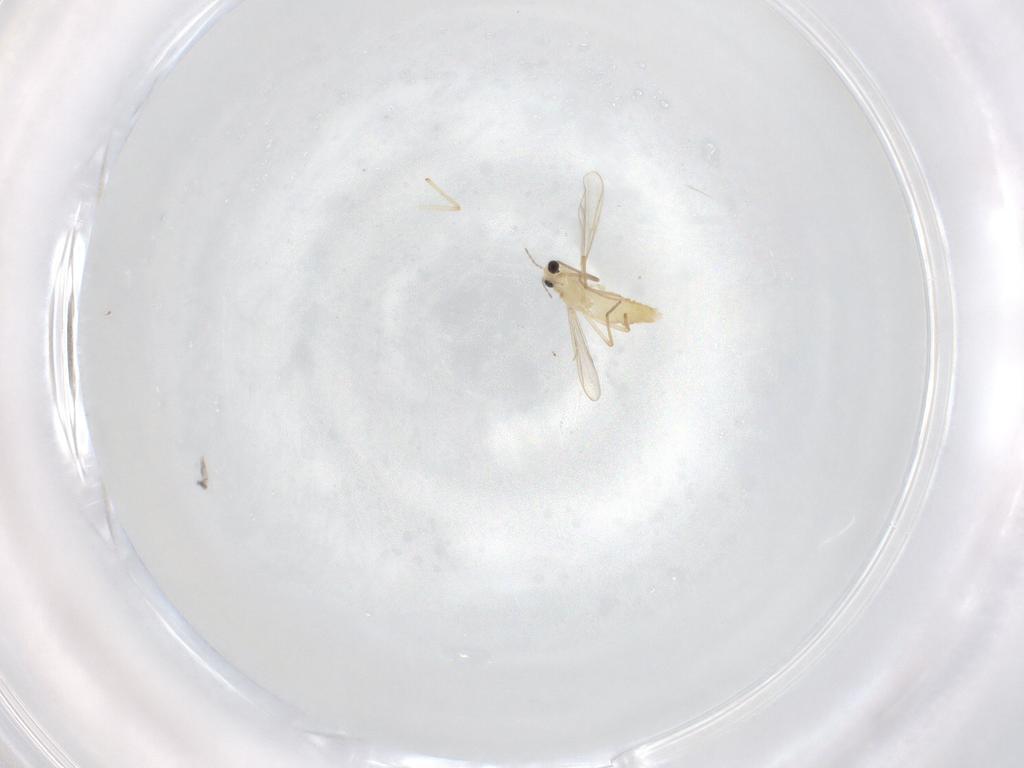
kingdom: Animalia
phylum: Arthropoda
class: Insecta
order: Diptera
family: Chironomidae
